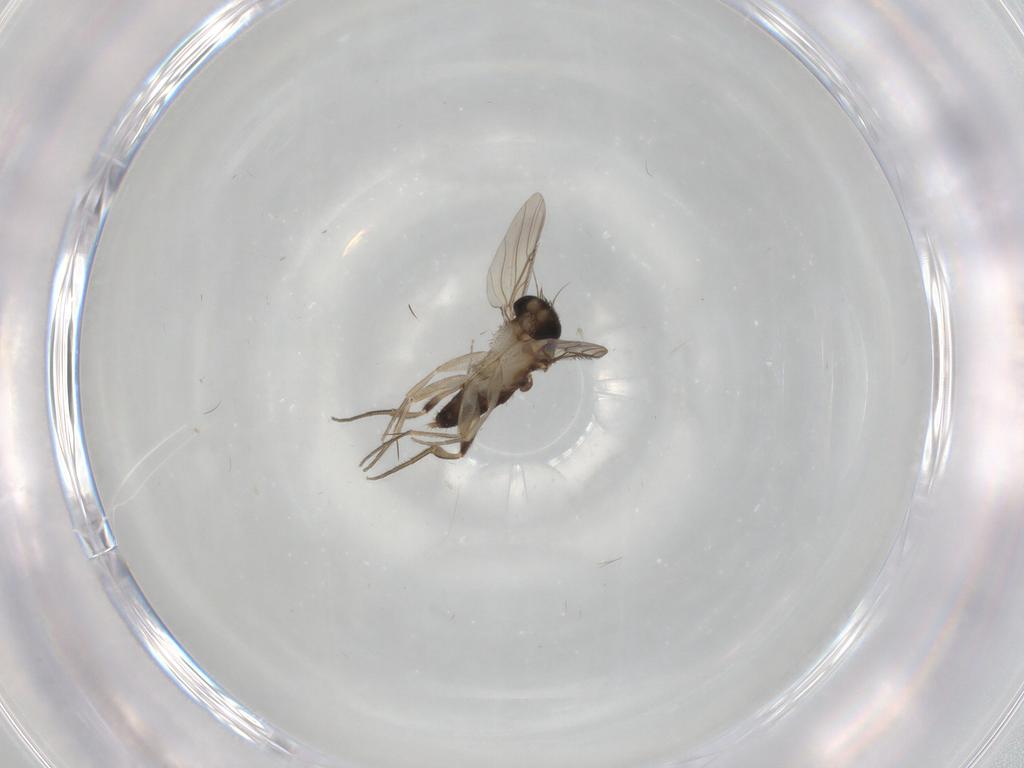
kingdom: Animalia
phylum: Arthropoda
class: Insecta
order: Diptera
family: Phoridae
